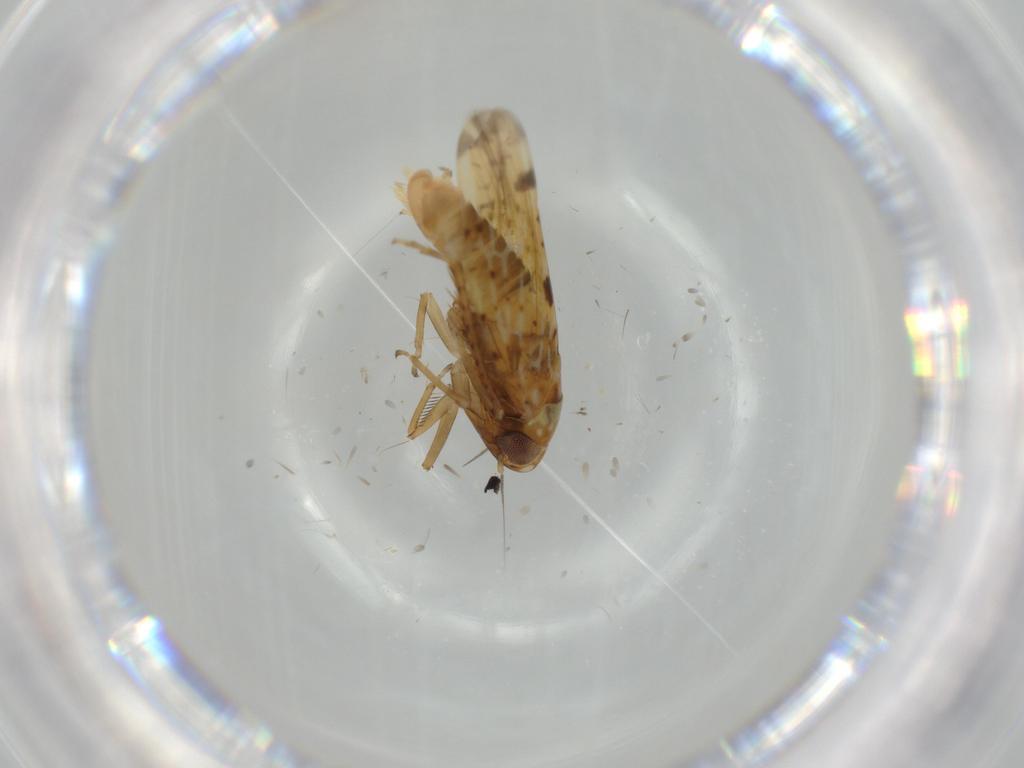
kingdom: Animalia
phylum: Arthropoda
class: Insecta
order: Hemiptera
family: Cicadellidae
